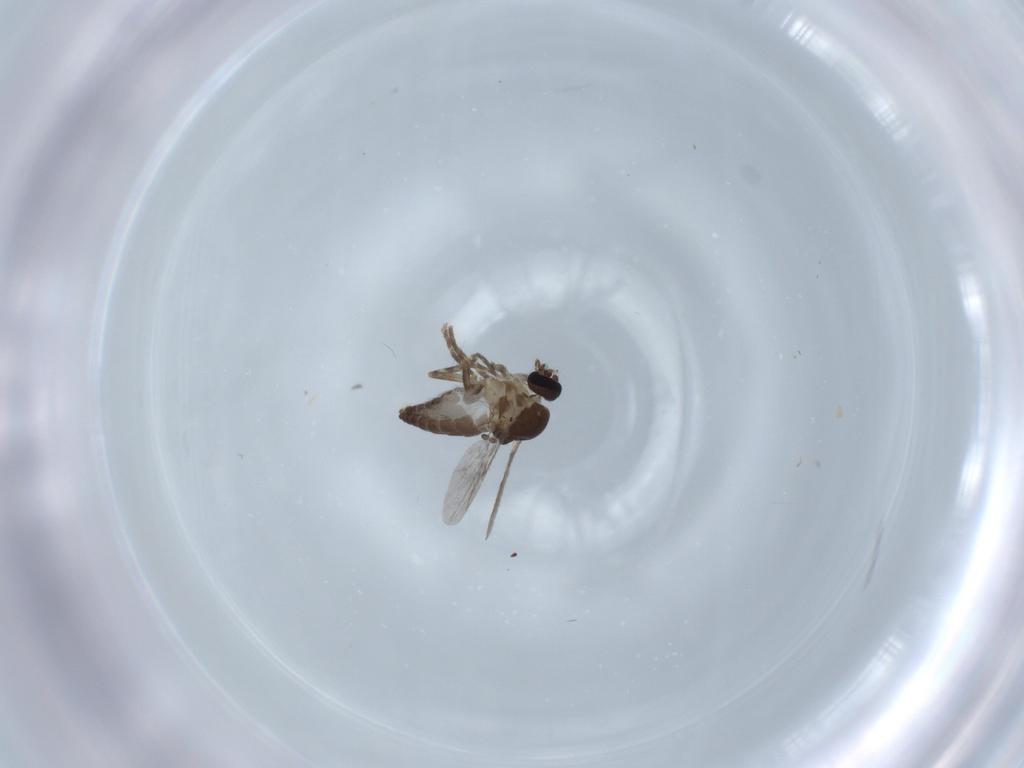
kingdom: Animalia
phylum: Arthropoda
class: Insecta
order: Diptera
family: Ceratopogonidae
